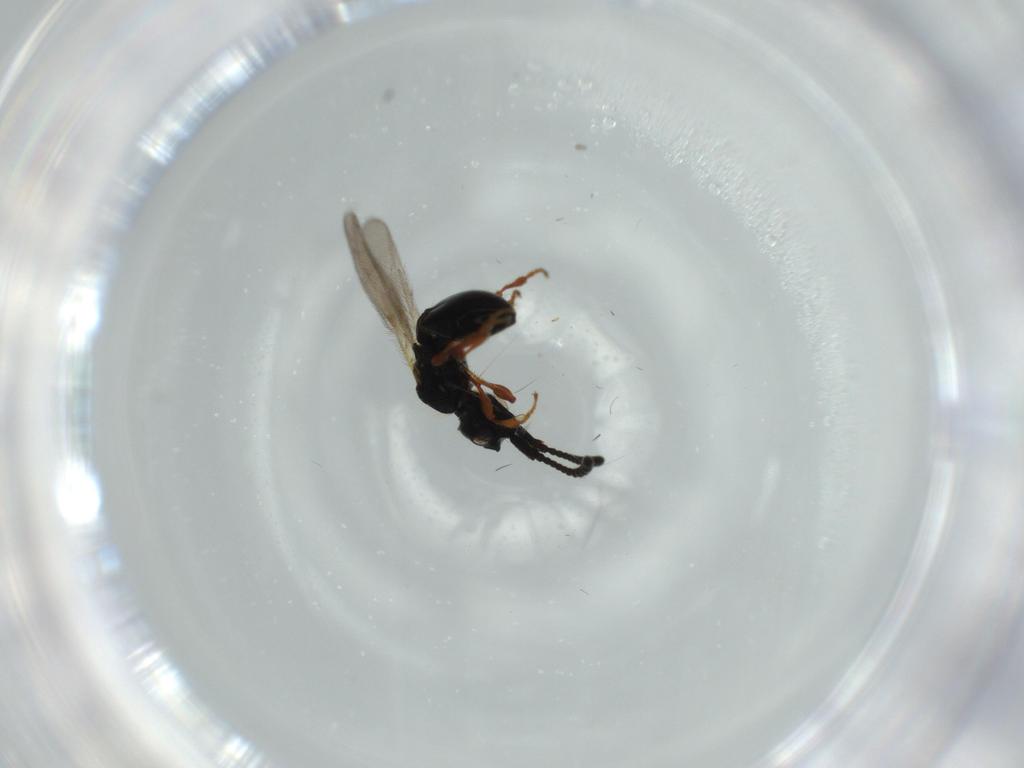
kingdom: Animalia
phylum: Arthropoda
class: Insecta
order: Hymenoptera
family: Diapriidae
